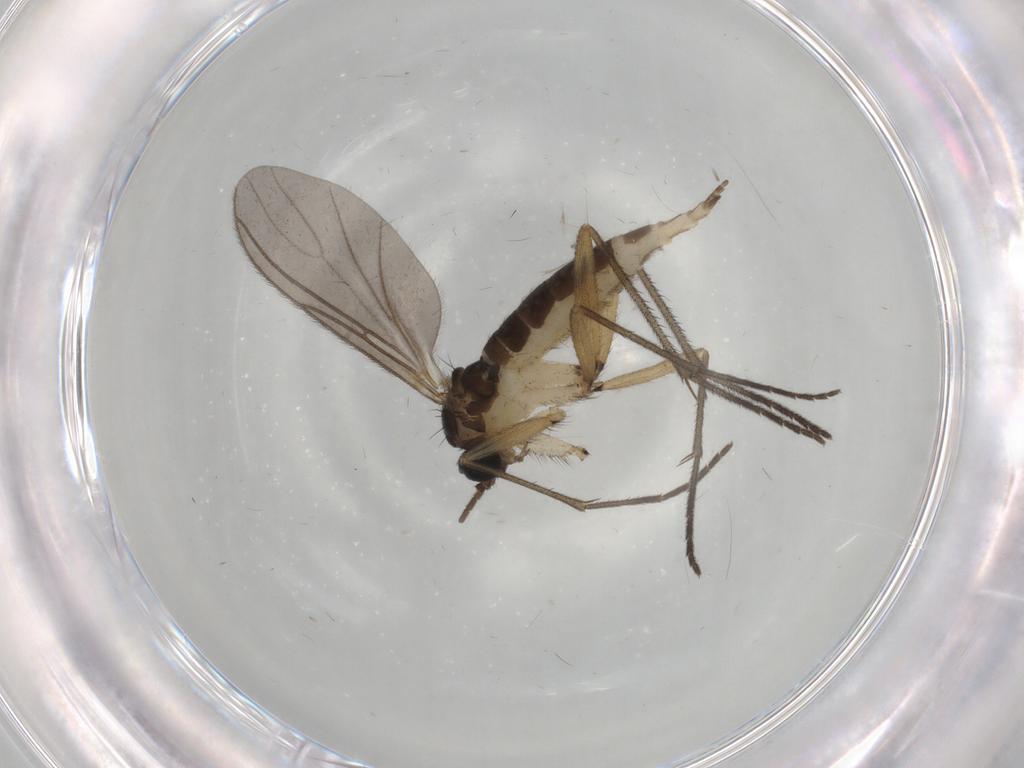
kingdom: Animalia
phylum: Arthropoda
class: Insecta
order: Diptera
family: Sciaridae
